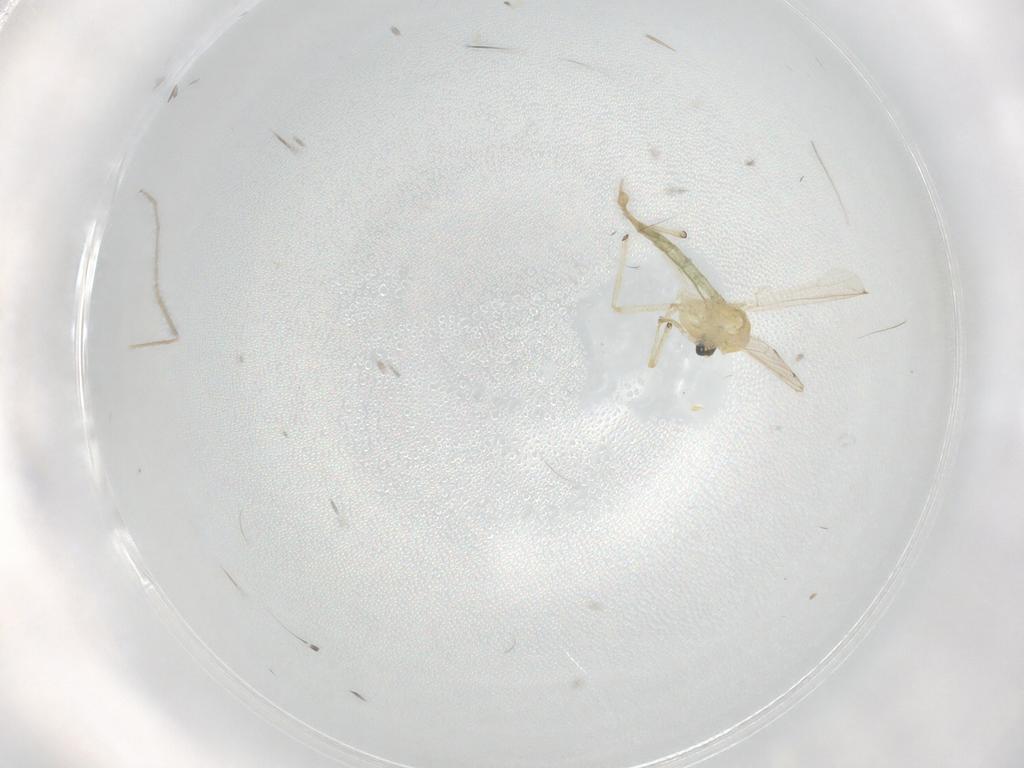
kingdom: Animalia
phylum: Arthropoda
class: Insecta
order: Diptera
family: Chironomidae
